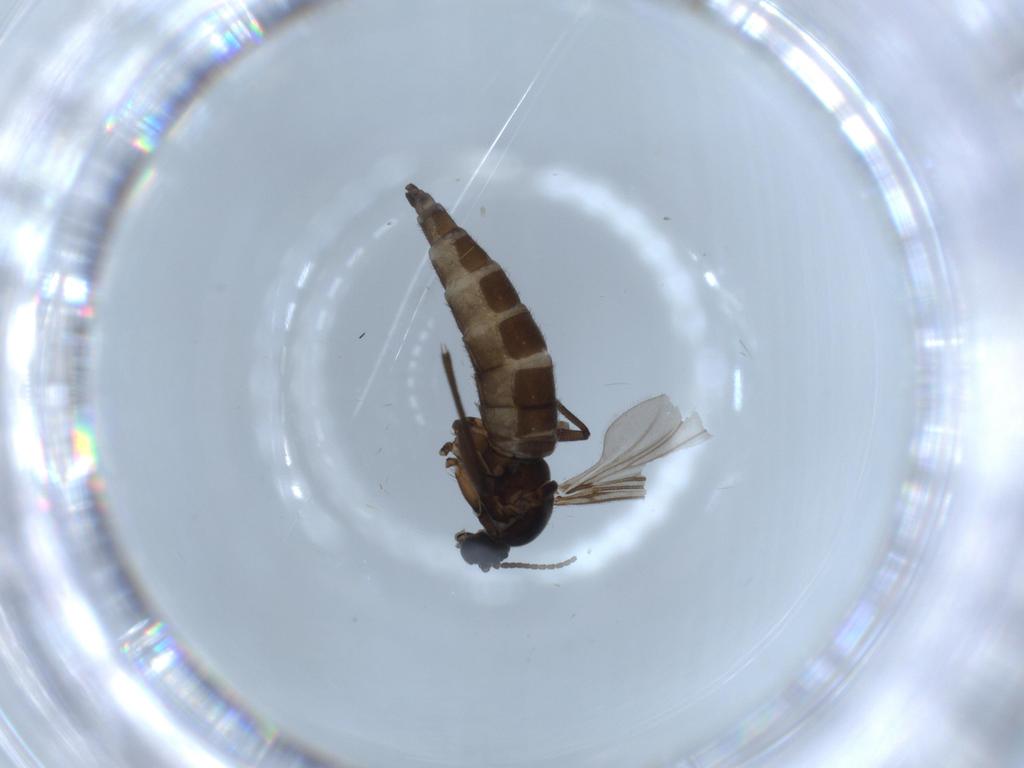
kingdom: Animalia
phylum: Arthropoda
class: Insecta
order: Diptera
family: Sciaridae
